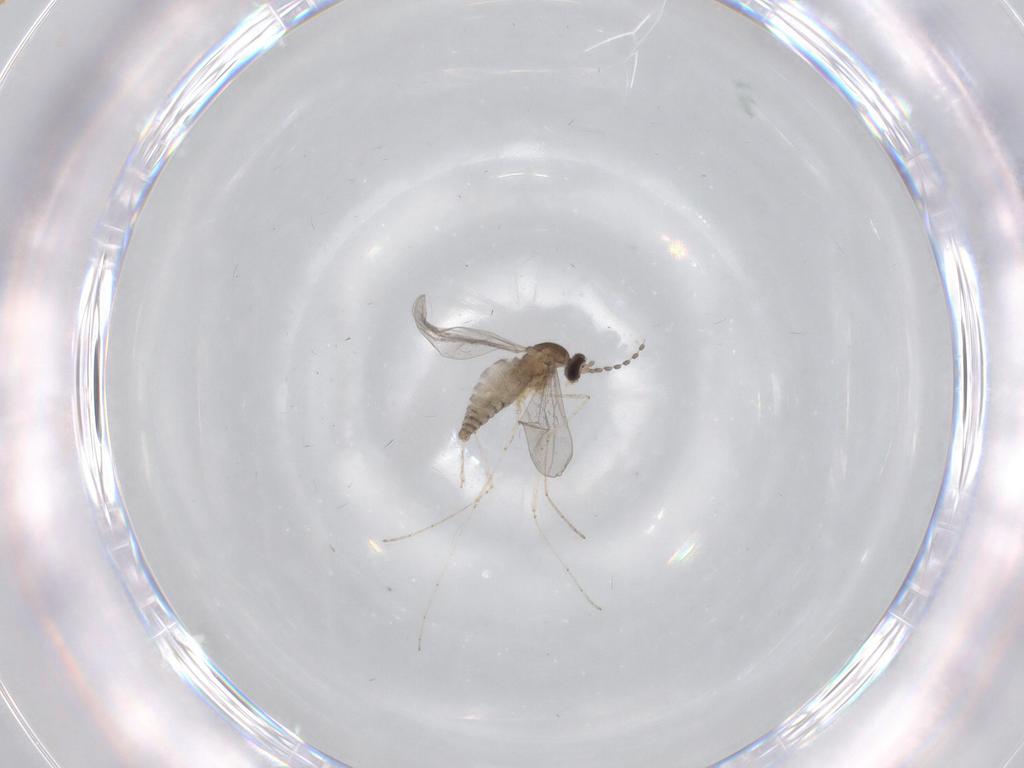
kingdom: Animalia
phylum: Arthropoda
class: Insecta
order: Diptera
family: Cecidomyiidae
